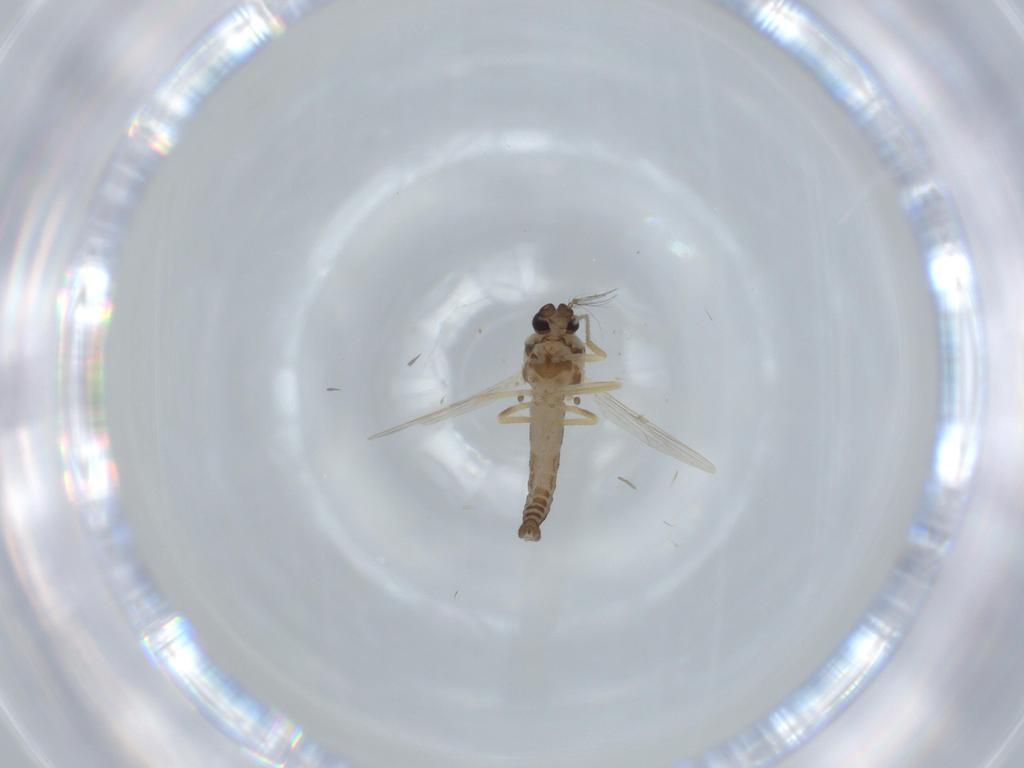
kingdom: Animalia
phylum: Arthropoda
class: Insecta
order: Diptera
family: Ceratopogonidae
